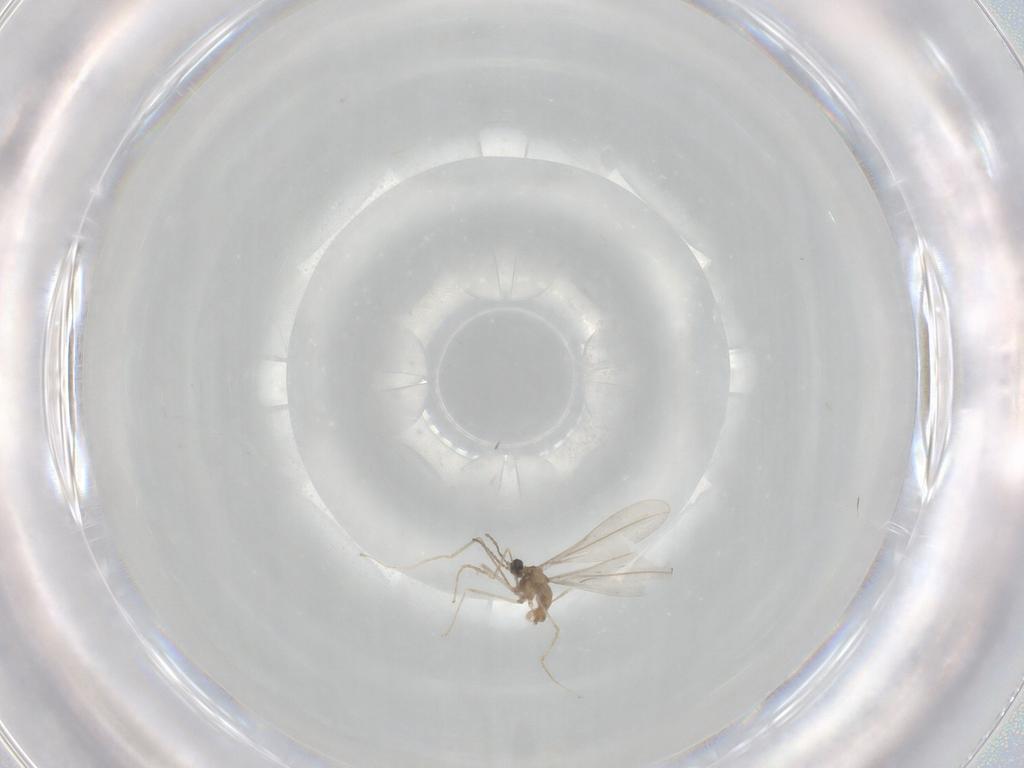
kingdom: Animalia
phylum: Arthropoda
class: Insecta
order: Diptera
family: Cecidomyiidae
